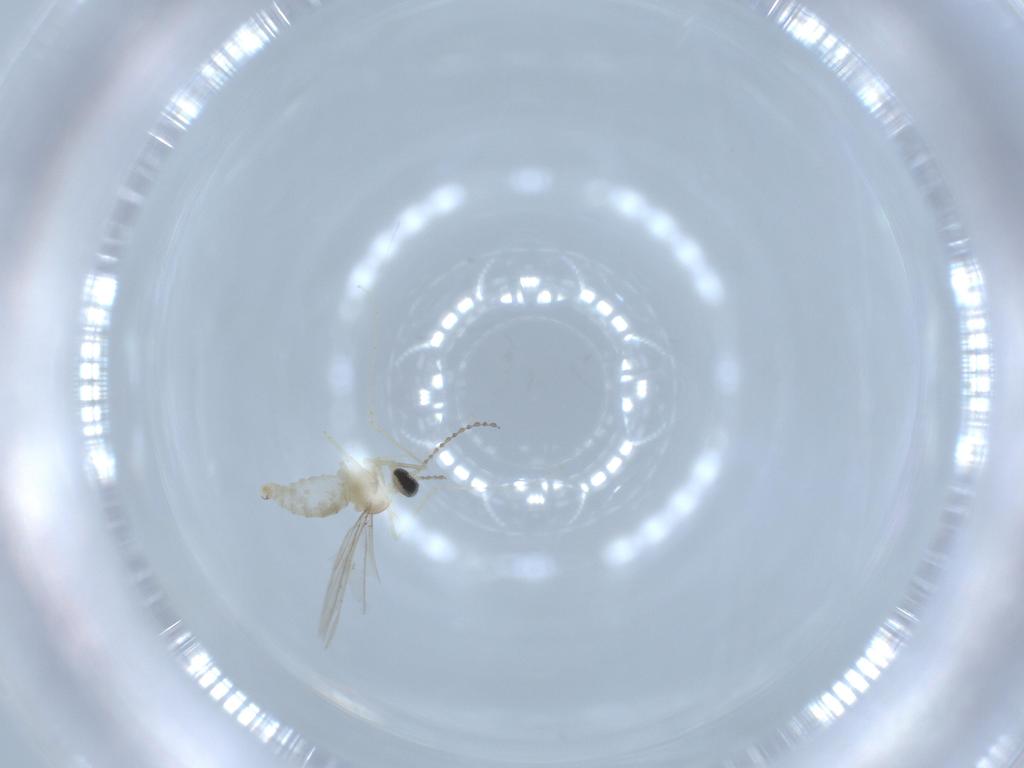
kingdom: Animalia
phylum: Arthropoda
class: Insecta
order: Diptera
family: Cecidomyiidae
